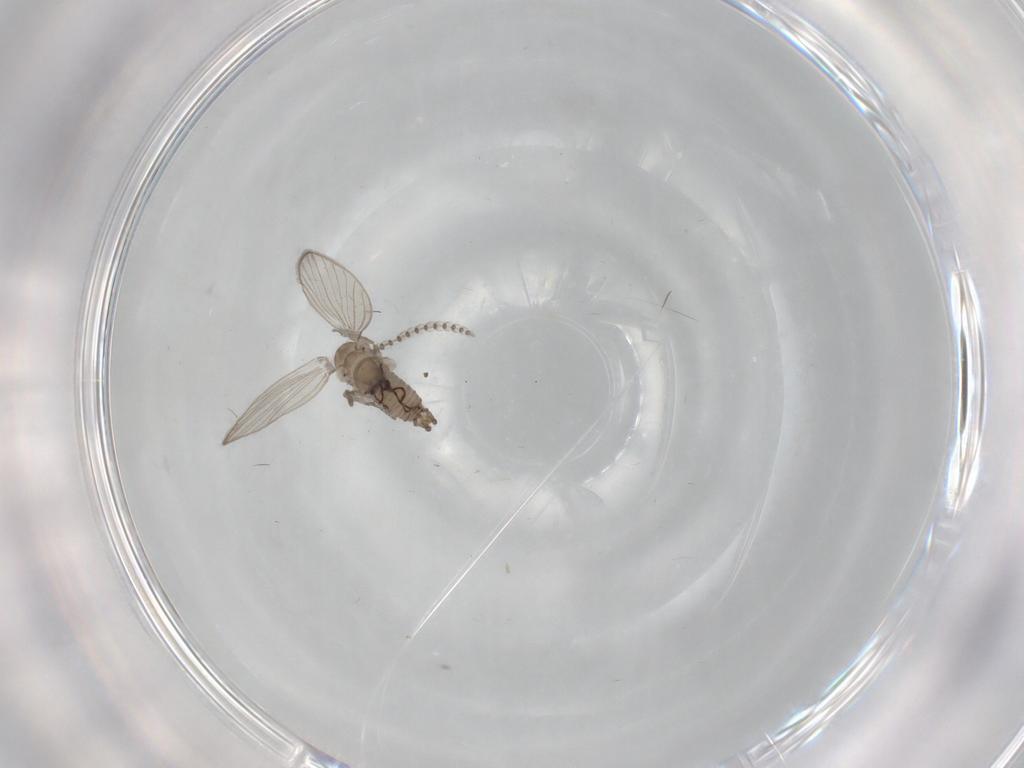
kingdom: Animalia
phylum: Arthropoda
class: Insecta
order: Diptera
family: Psychodidae
